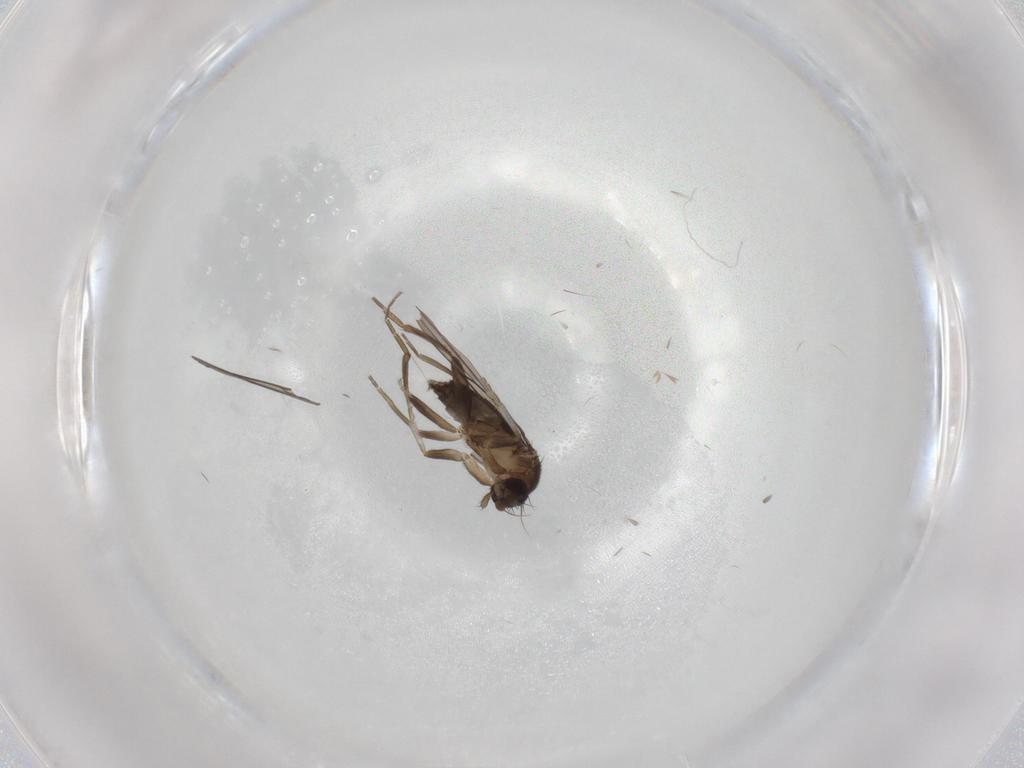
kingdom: Animalia
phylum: Arthropoda
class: Insecta
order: Diptera
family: Phoridae
